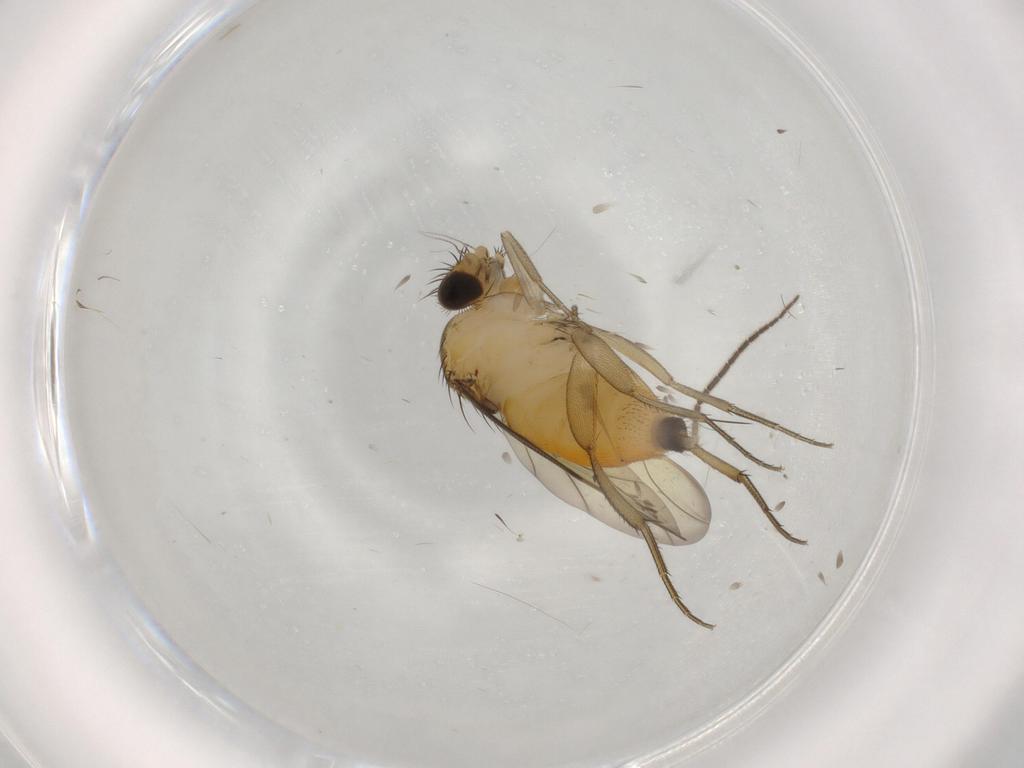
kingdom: Animalia
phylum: Arthropoda
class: Insecta
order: Diptera
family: Sciaridae
